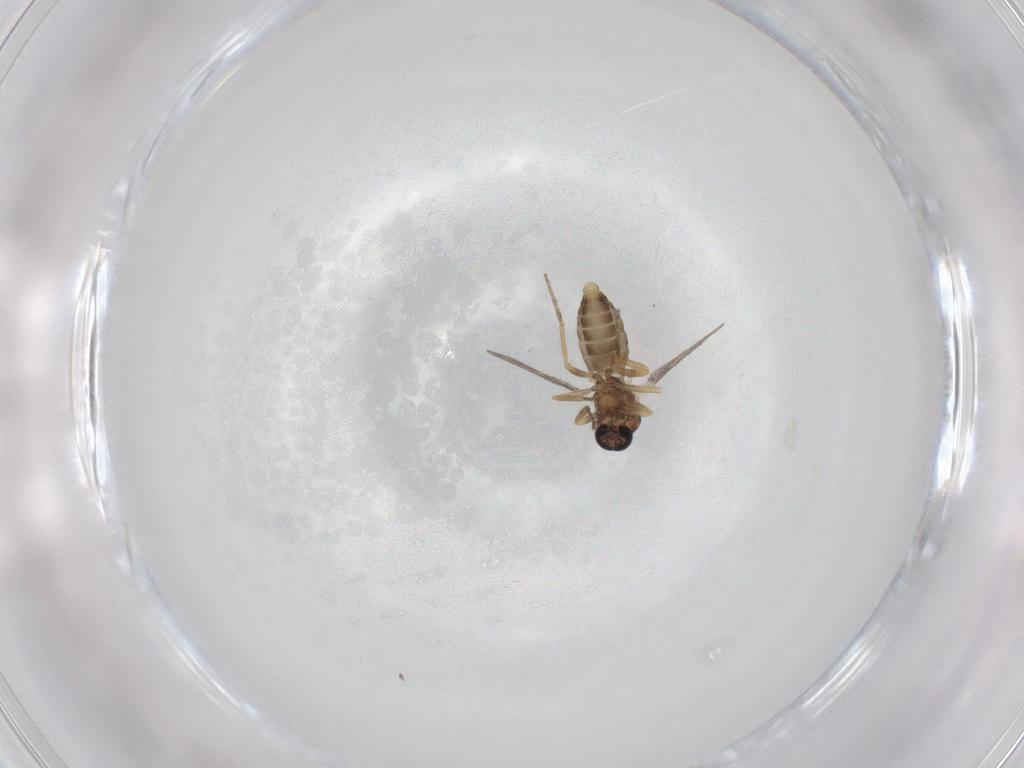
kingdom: Animalia
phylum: Arthropoda
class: Insecta
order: Diptera
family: Ceratopogonidae
